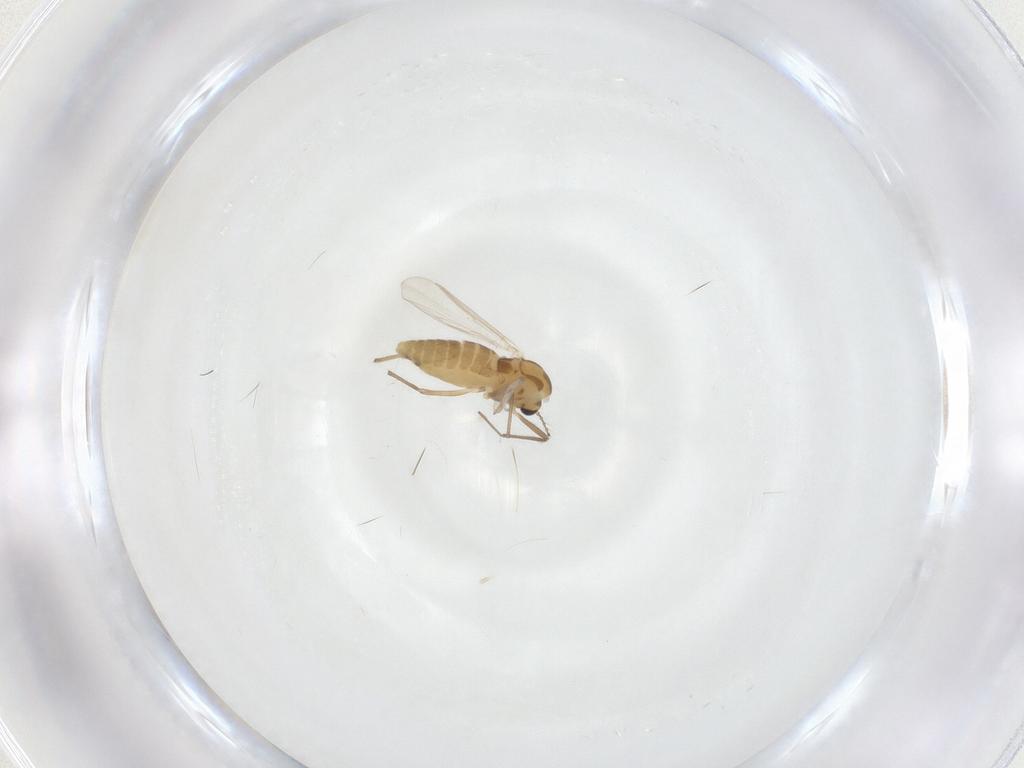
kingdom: Animalia
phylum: Arthropoda
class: Insecta
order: Diptera
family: Chironomidae
